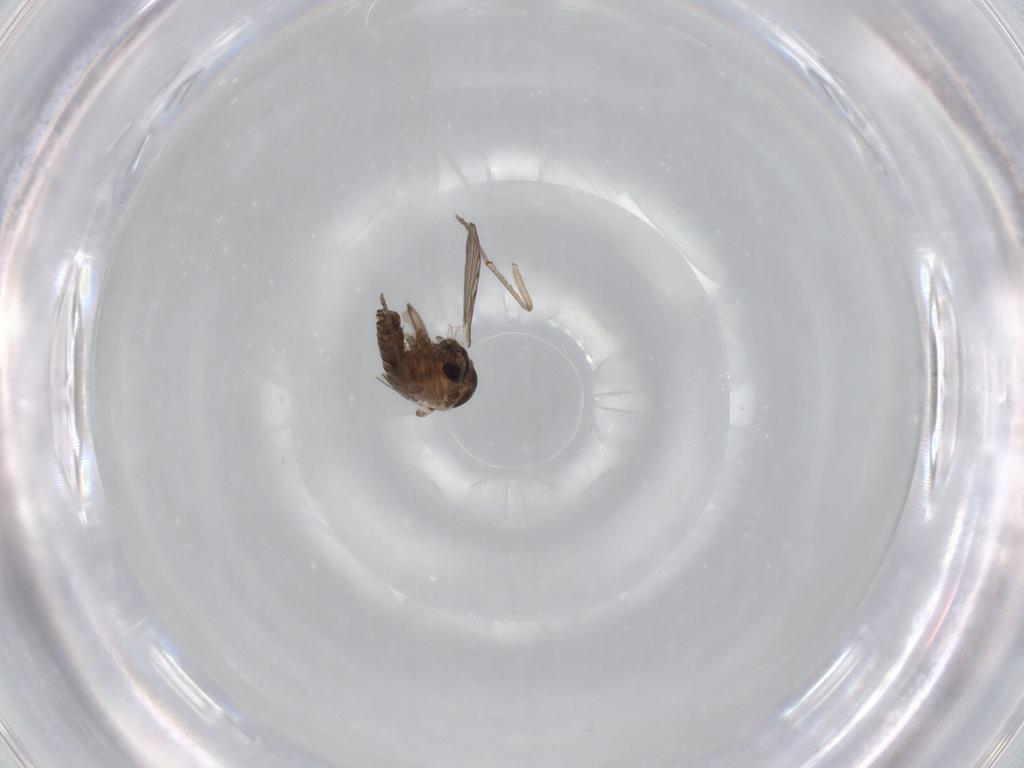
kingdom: Animalia
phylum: Arthropoda
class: Insecta
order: Diptera
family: Psychodidae
